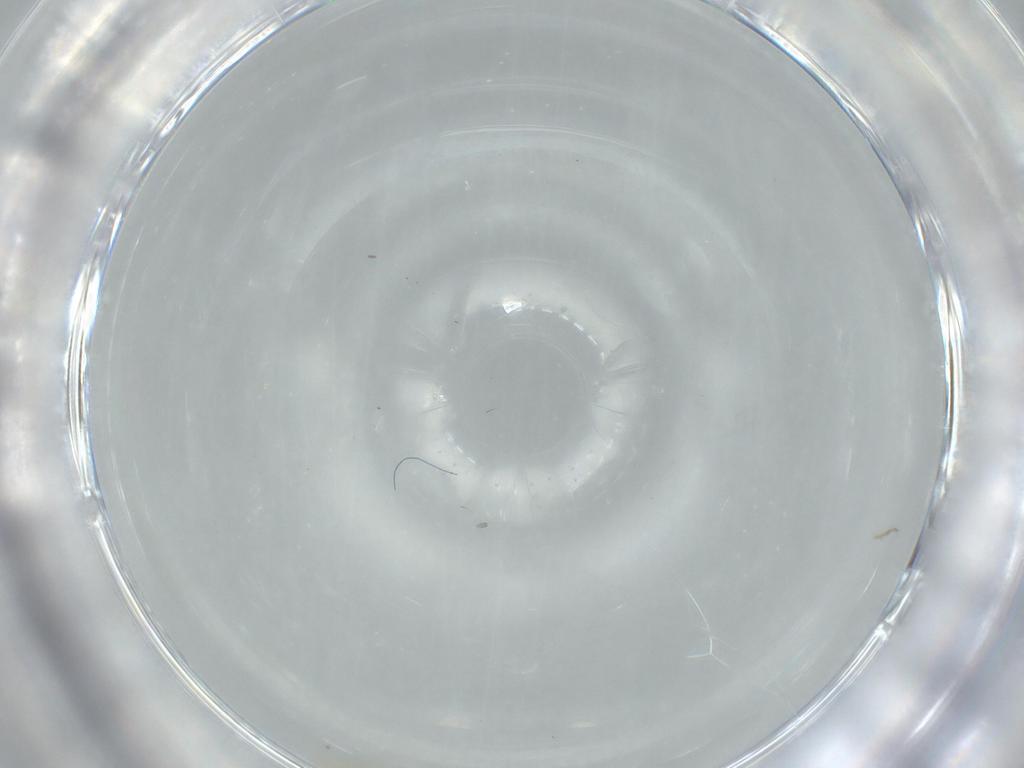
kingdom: Animalia
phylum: Arthropoda
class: Insecta
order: Diptera
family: Cecidomyiidae
